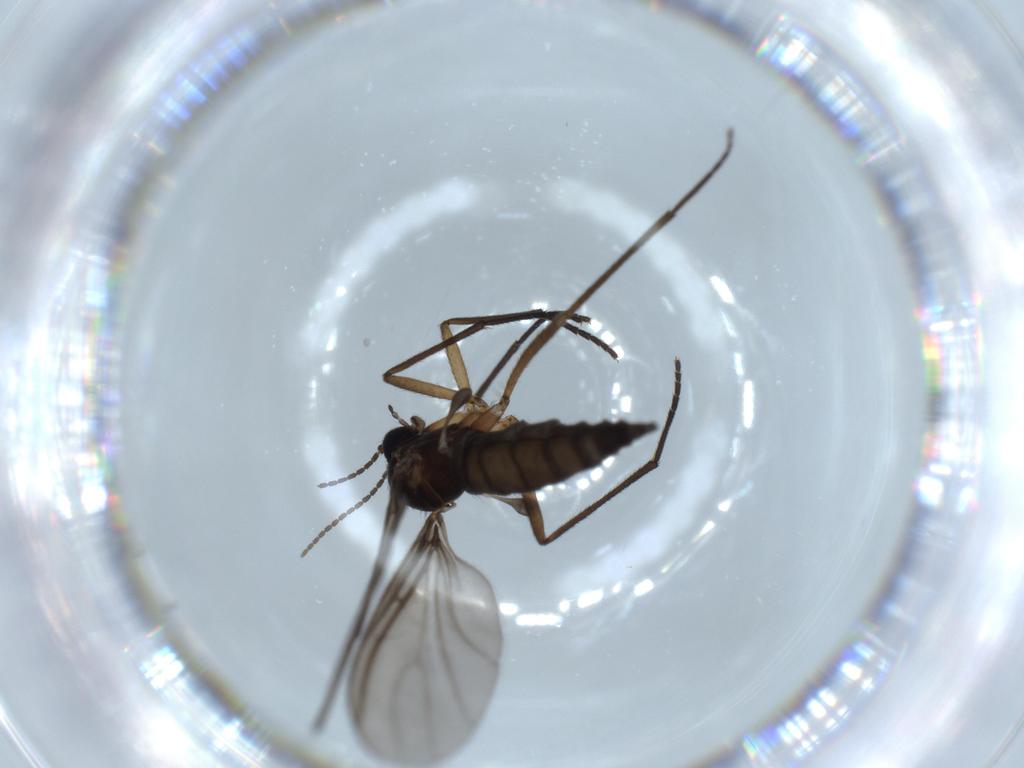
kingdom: Animalia
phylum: Arthropoda
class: Insecta
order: Diptera
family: Sciaridae
